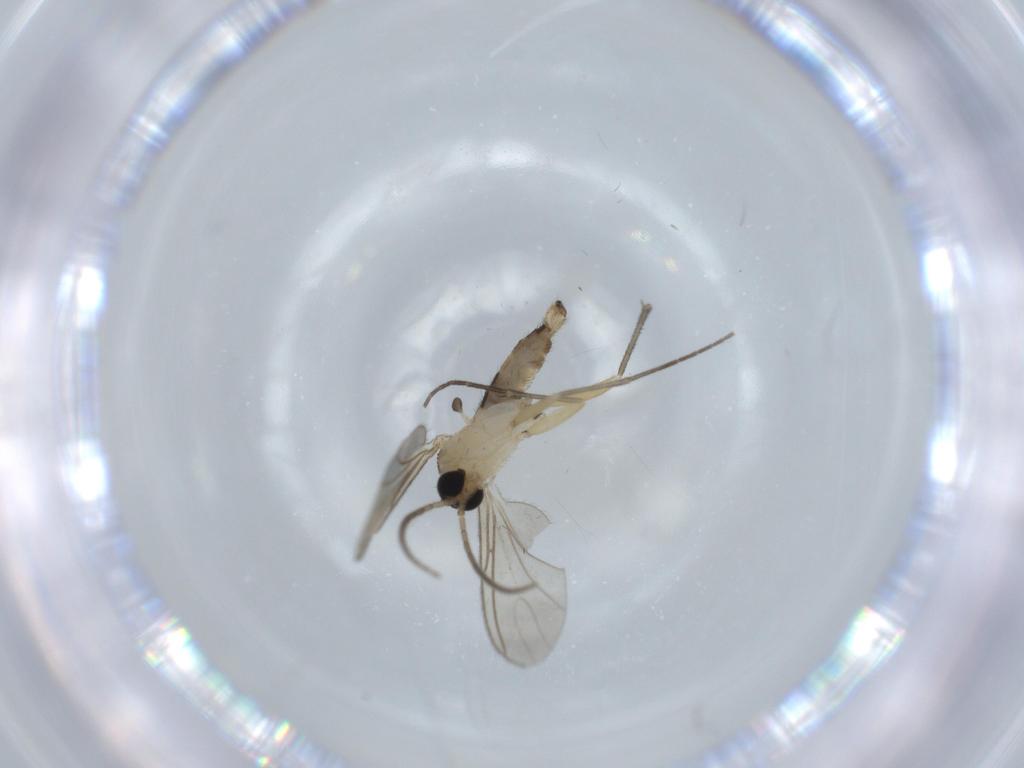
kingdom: Animalia
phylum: Arthropoda
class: Insecta
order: Diptera
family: Sciaridae
